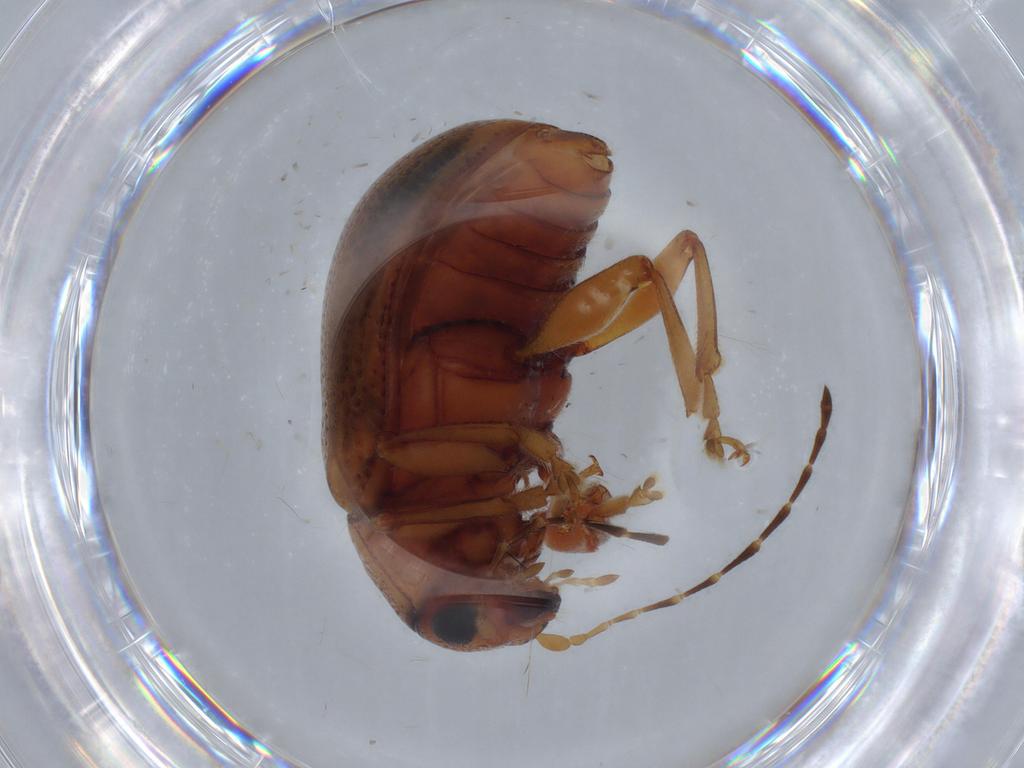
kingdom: Animalia
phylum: Arthropoda
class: Insecta
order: Coleoptera
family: Chrysomelidae
